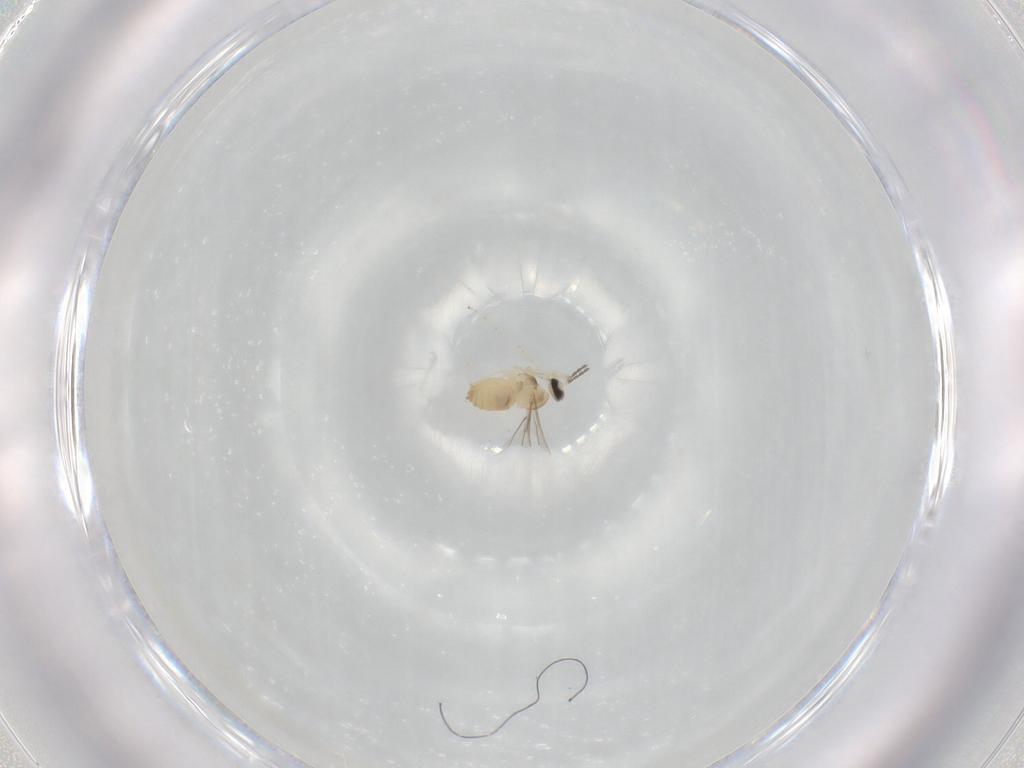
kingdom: Animalia
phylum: Arthropoda
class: Insecta
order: Diptera
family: Cecidomyiidae
